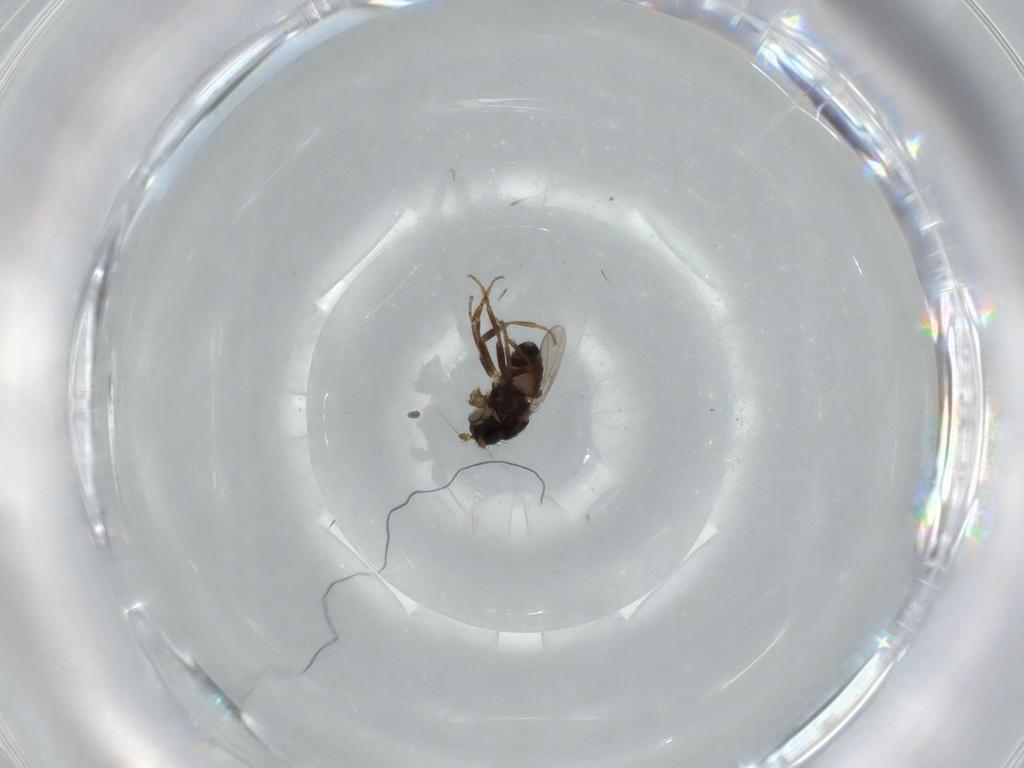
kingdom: Animalia
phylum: Arthropoda
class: Insecta
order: Diptera
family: Sphaeroceridae
